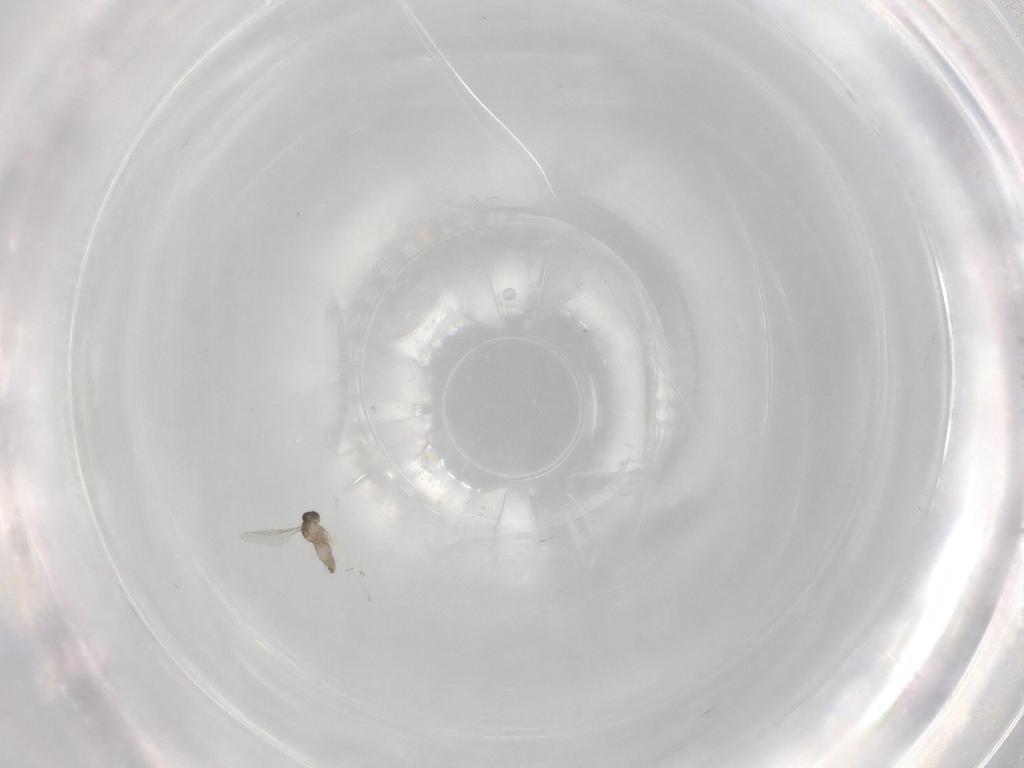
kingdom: Animalia
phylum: Arthropoda
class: Insecta
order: Diptera
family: Cecidomyiidae
